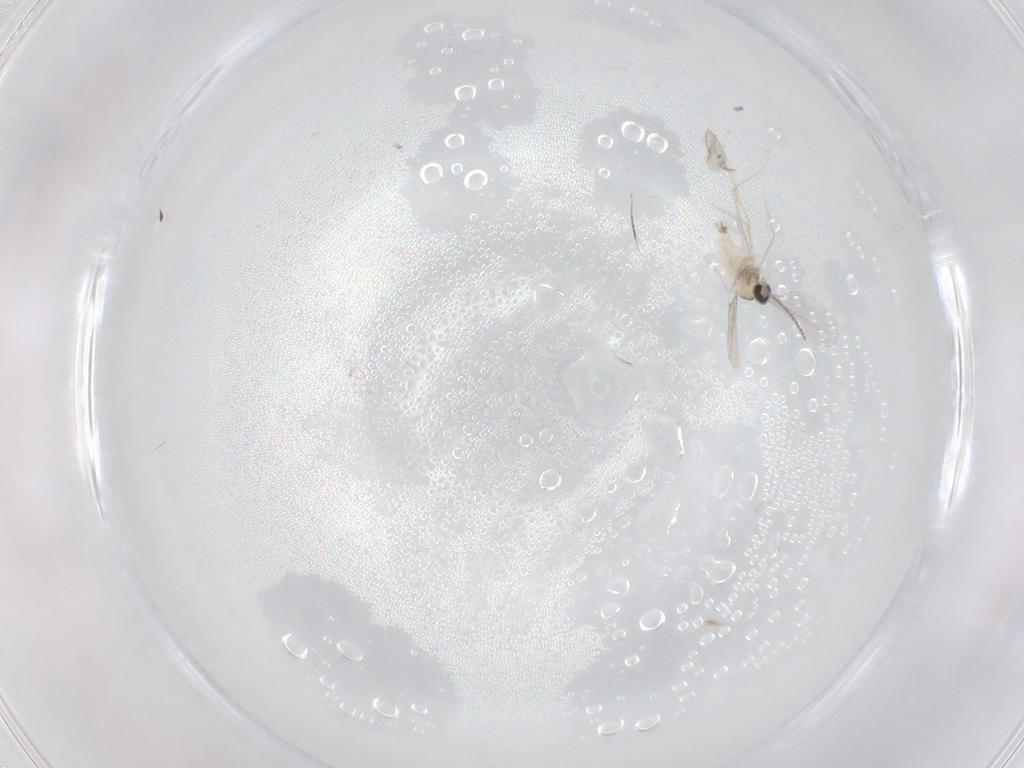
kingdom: Animalia
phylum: Arthropoda
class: Insecta
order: Diptera
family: Cecidomyiidae
